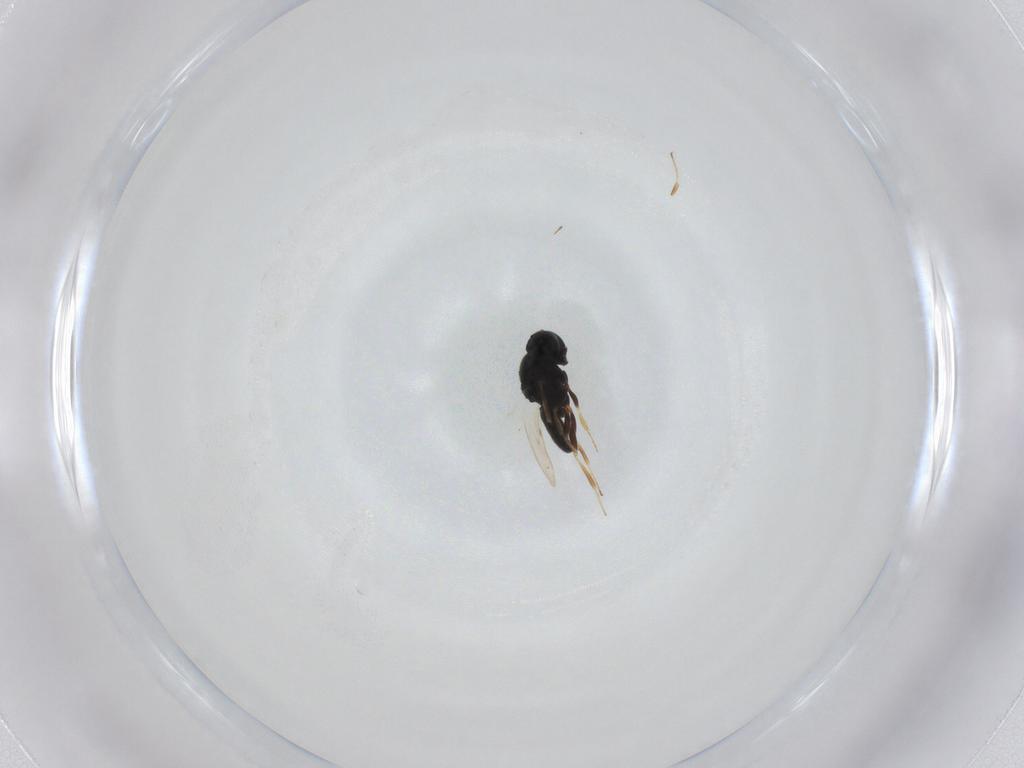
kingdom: Animalia
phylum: Arthropoda
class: Insecta
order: Hymenoptera
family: Scelionidae
